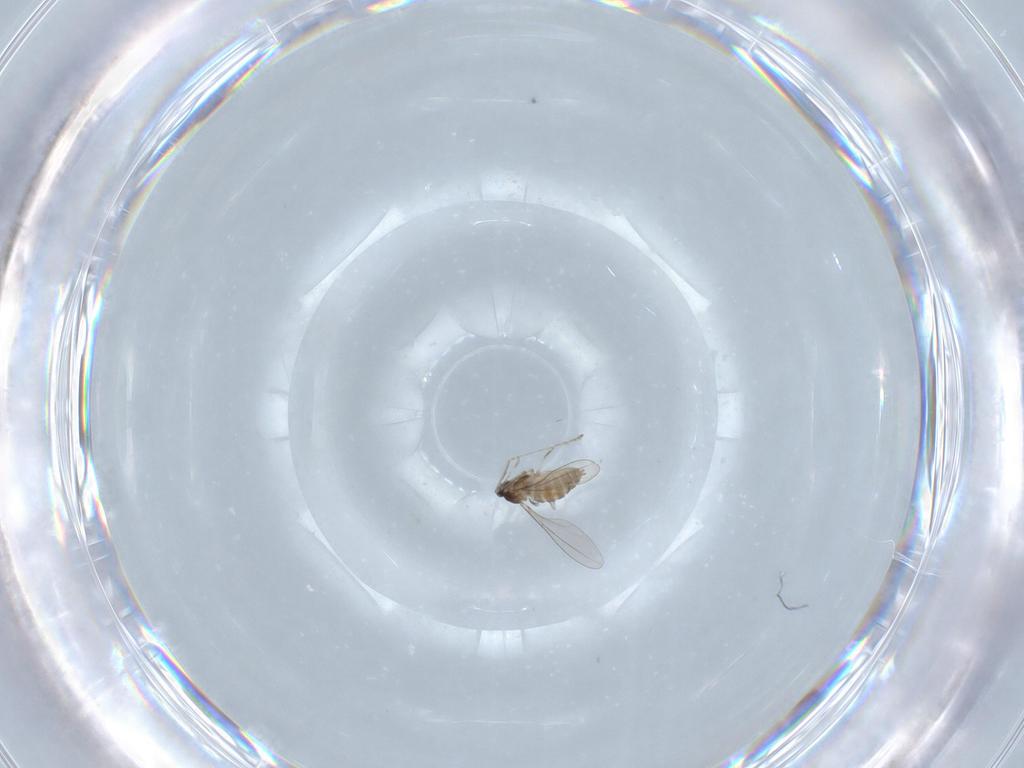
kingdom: Animalia
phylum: Arthropoda
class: Insecta
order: Diptera
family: Cecidomyiidae
